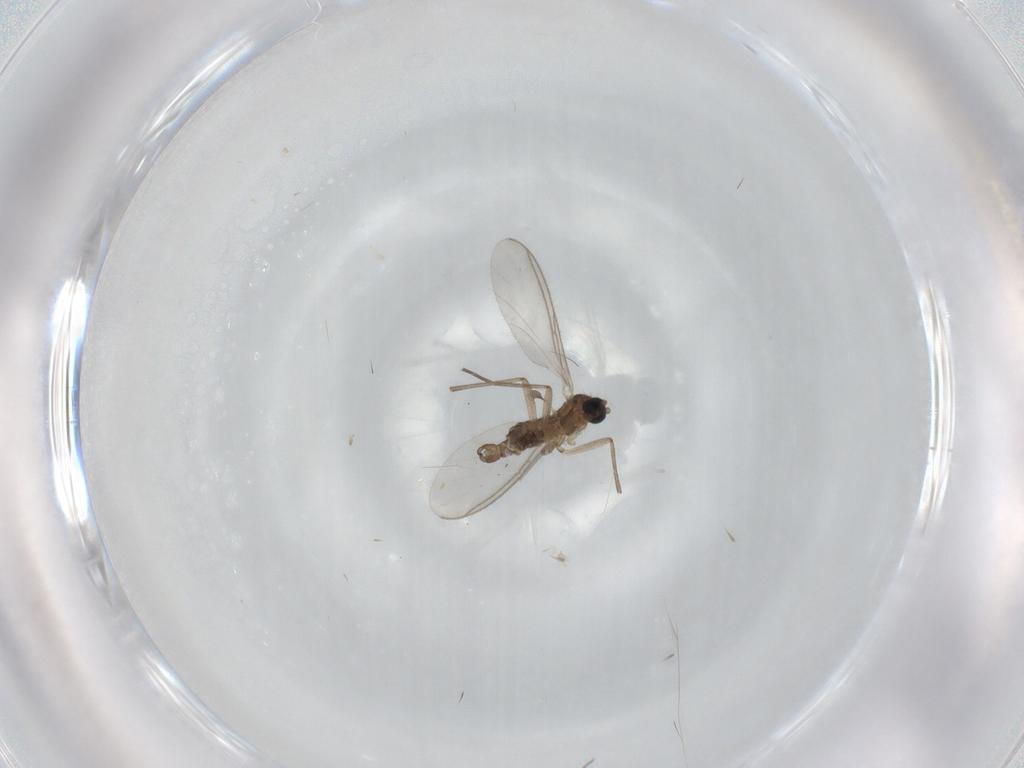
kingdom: Animalia
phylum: Arthropoda
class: Insecta
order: Diptera
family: Sciaridae
